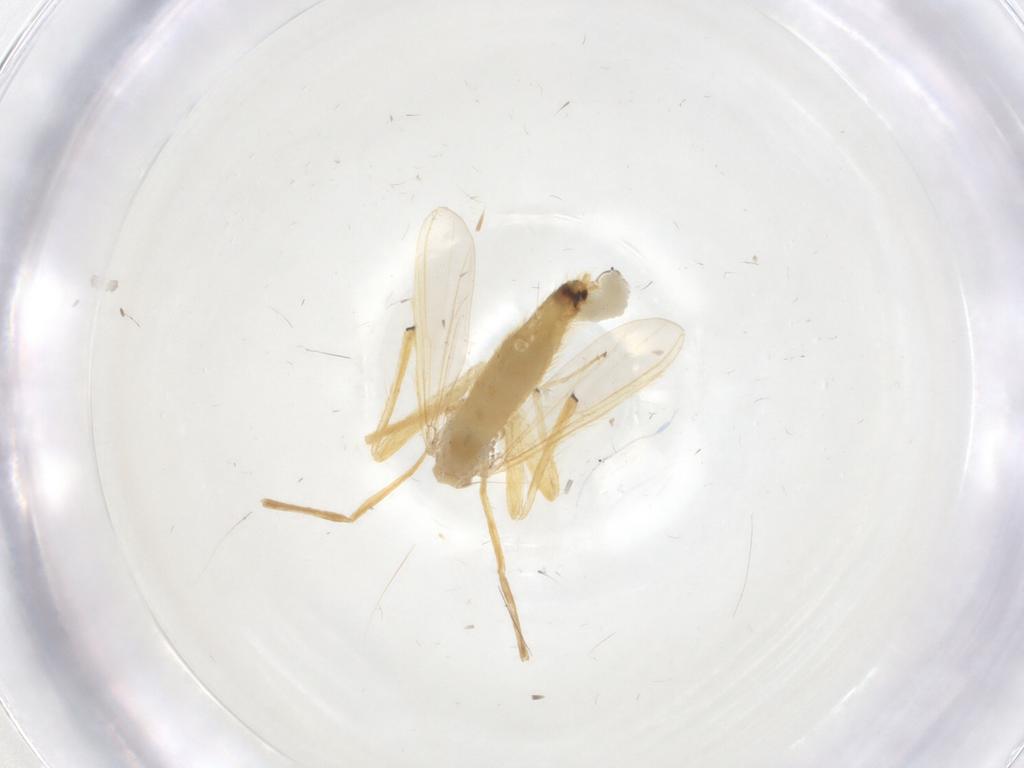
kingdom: Animalia
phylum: Arthropoda
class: Insecta
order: Diptera
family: Chironomidae
